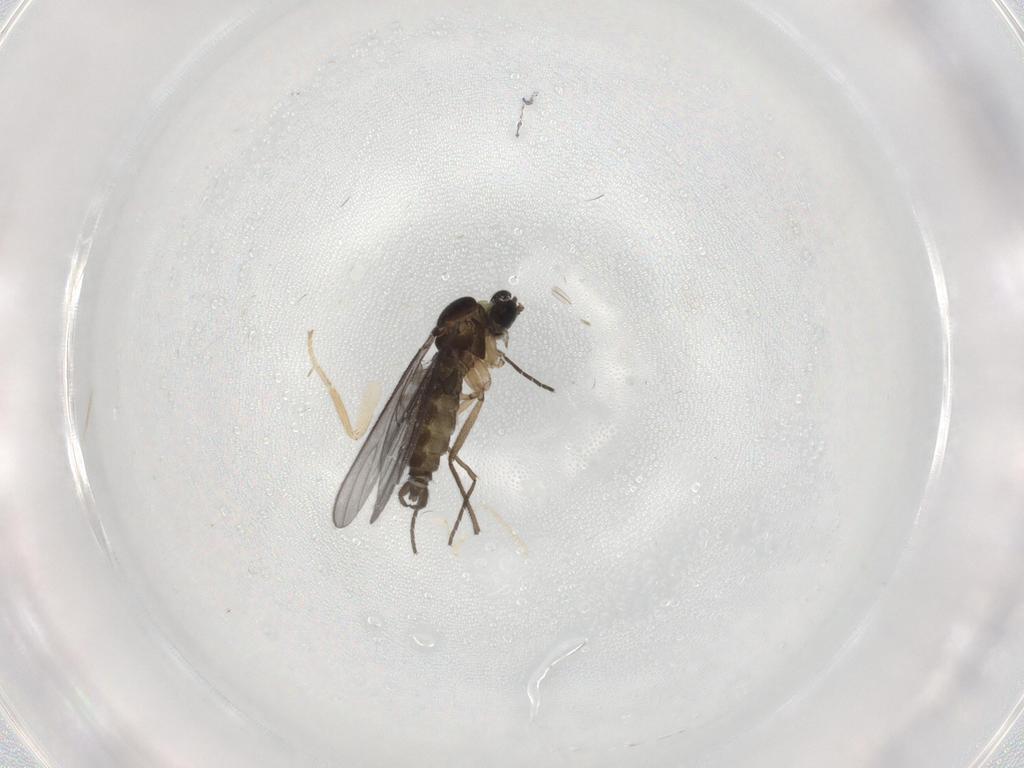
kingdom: Animalia
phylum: Arthropoda
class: Insecta
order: Diptera
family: Sciaridae
